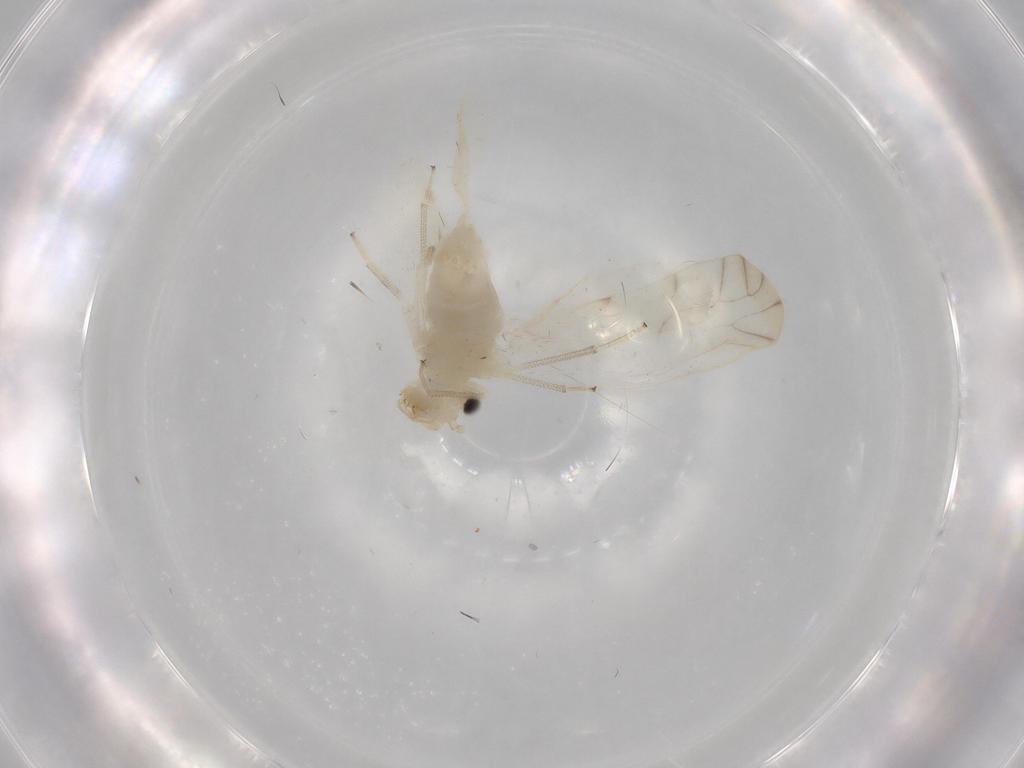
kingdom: Animalia
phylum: Arthropoda
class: Insecta
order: Psocodea
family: Caeciliusidae
